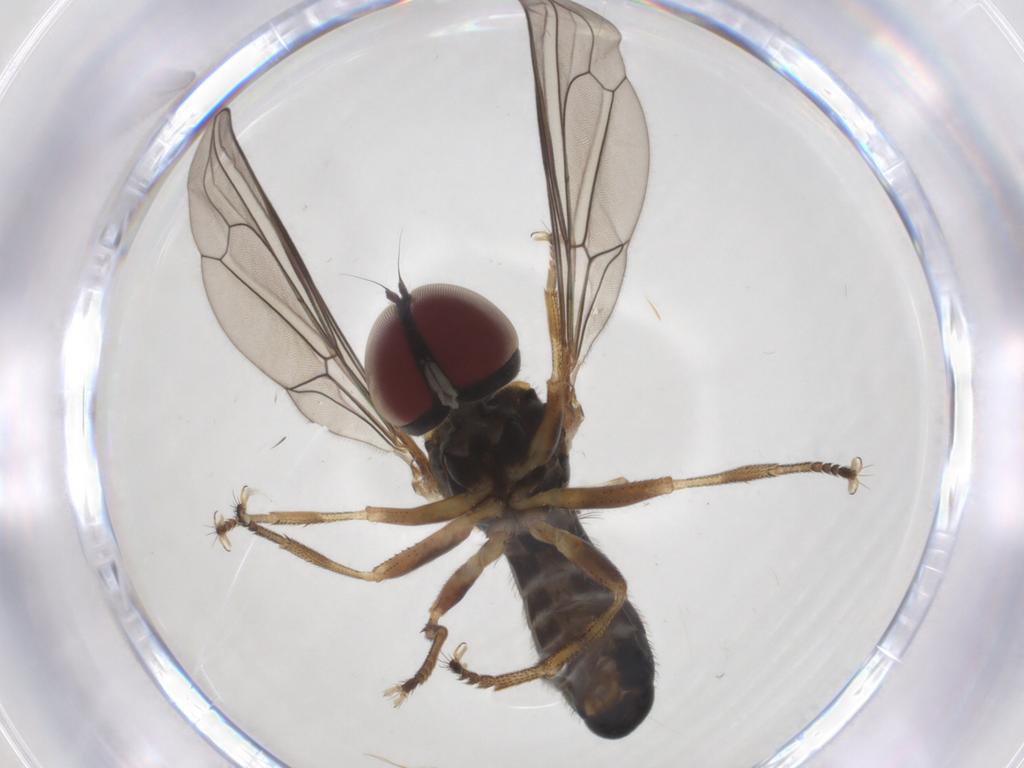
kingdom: Animalia
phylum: Arthropoda
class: Insecta
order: Diptera
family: Pipunculidae
